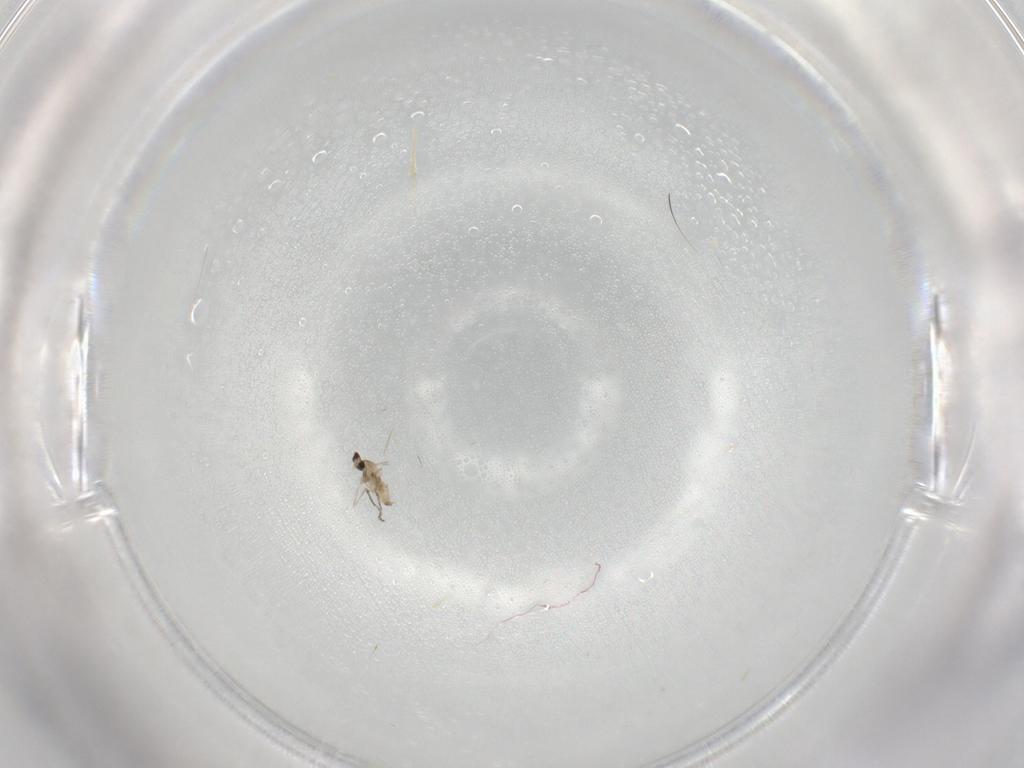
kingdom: Animalia
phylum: Arthropoda
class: Insecta
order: Diptera
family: Cecidomyiidae
